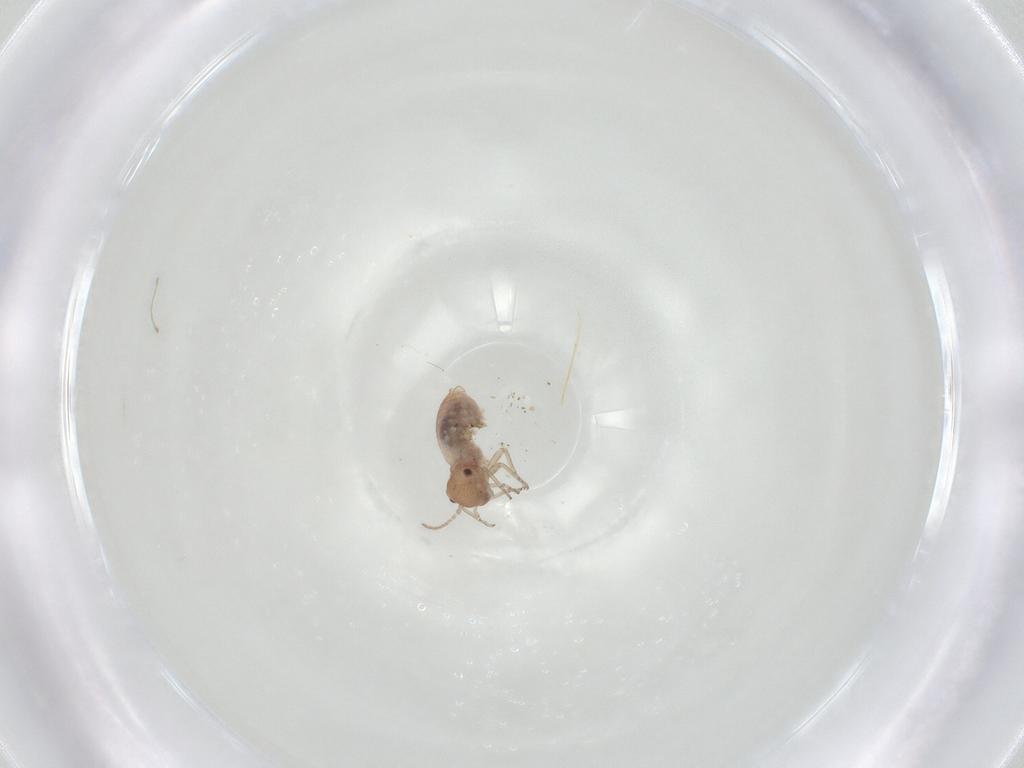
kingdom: Animalia
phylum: Arthropoda
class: Insecta
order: Psocodea
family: Peripsocidae
